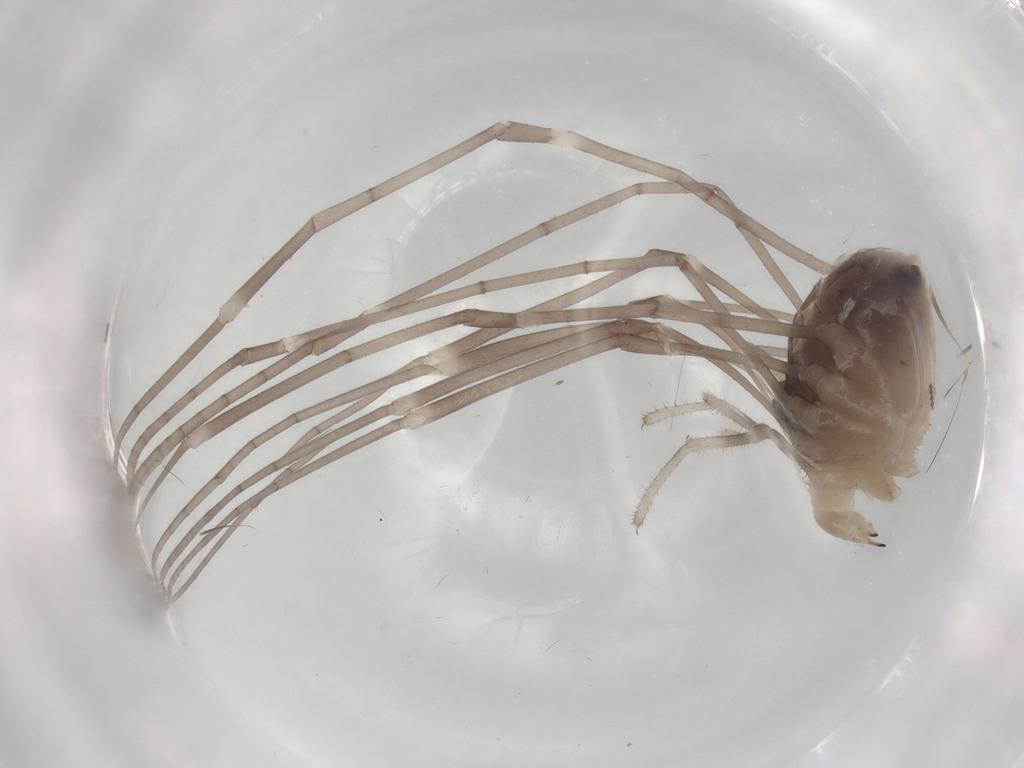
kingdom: Animalia
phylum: Arthropoda
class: Arachnida
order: Opiliones
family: Sclerosomatidae
